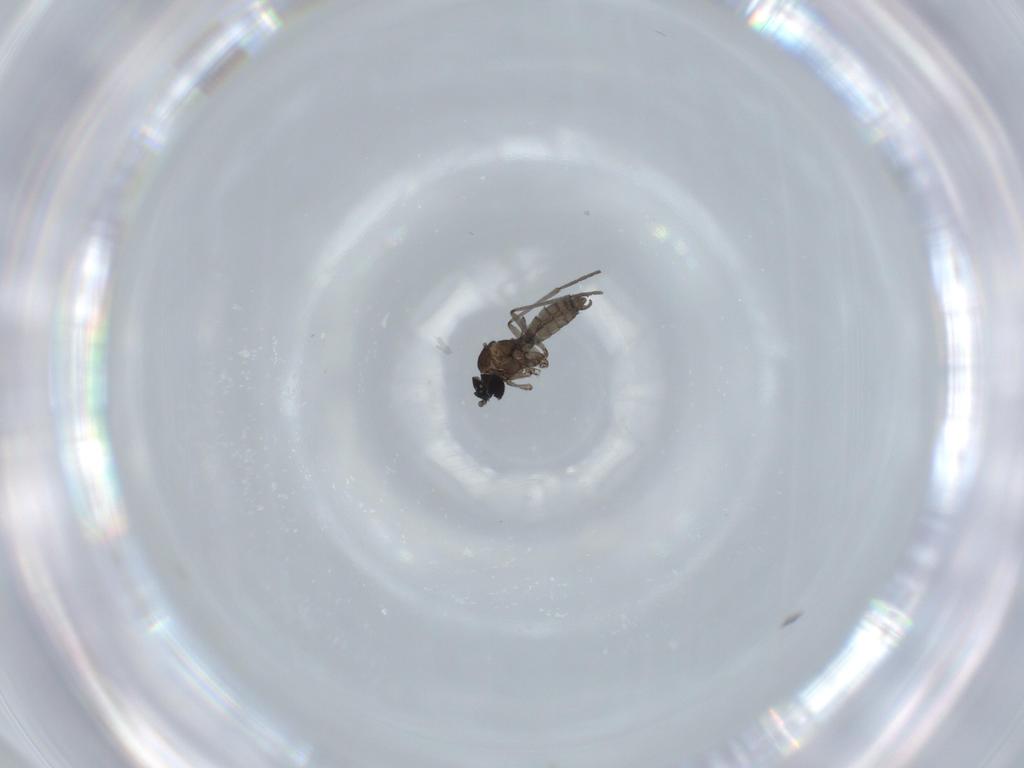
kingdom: Animalia
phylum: Arthropoda
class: Insecta
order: Diptera
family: Sciaridae
